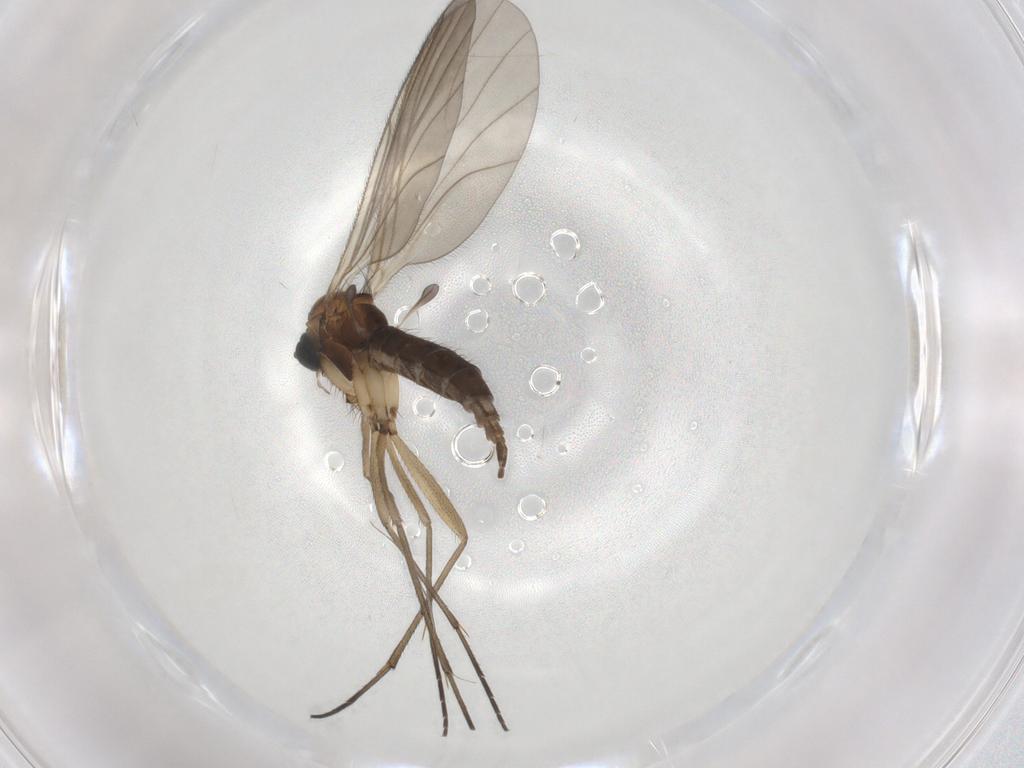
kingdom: Animalia
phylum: Arthropoda
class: Insecta
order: Diptera
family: Sciaridae
